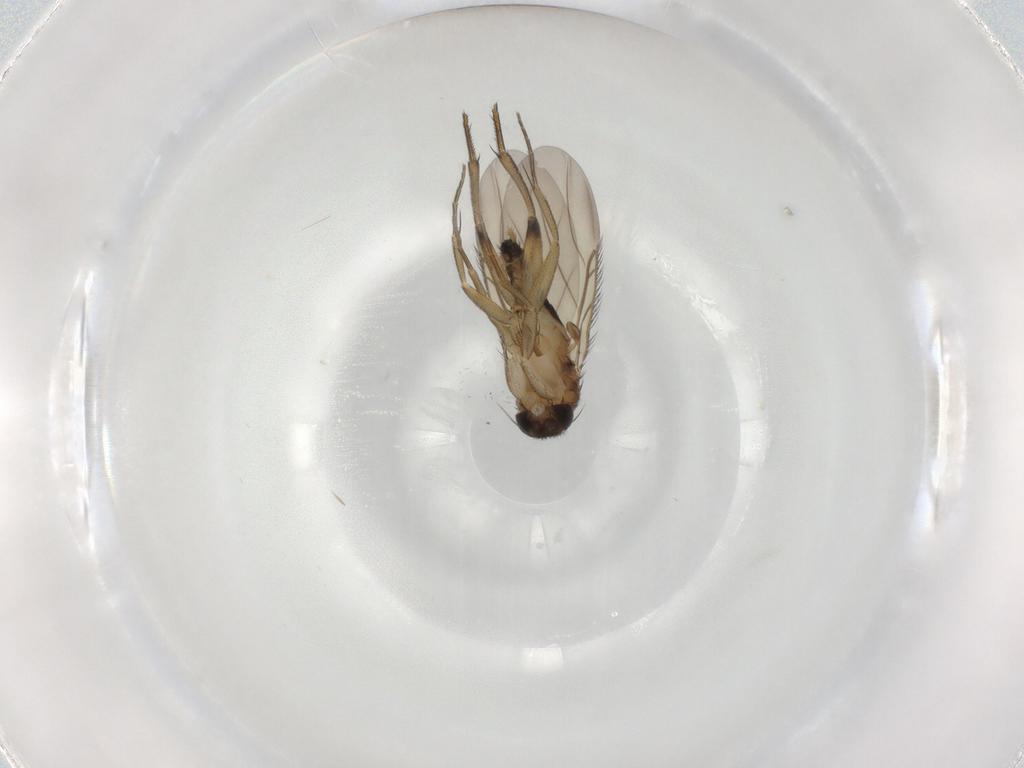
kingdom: Animalia
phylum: Arthropoda
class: Insecta
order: Diptera
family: Phoridae
